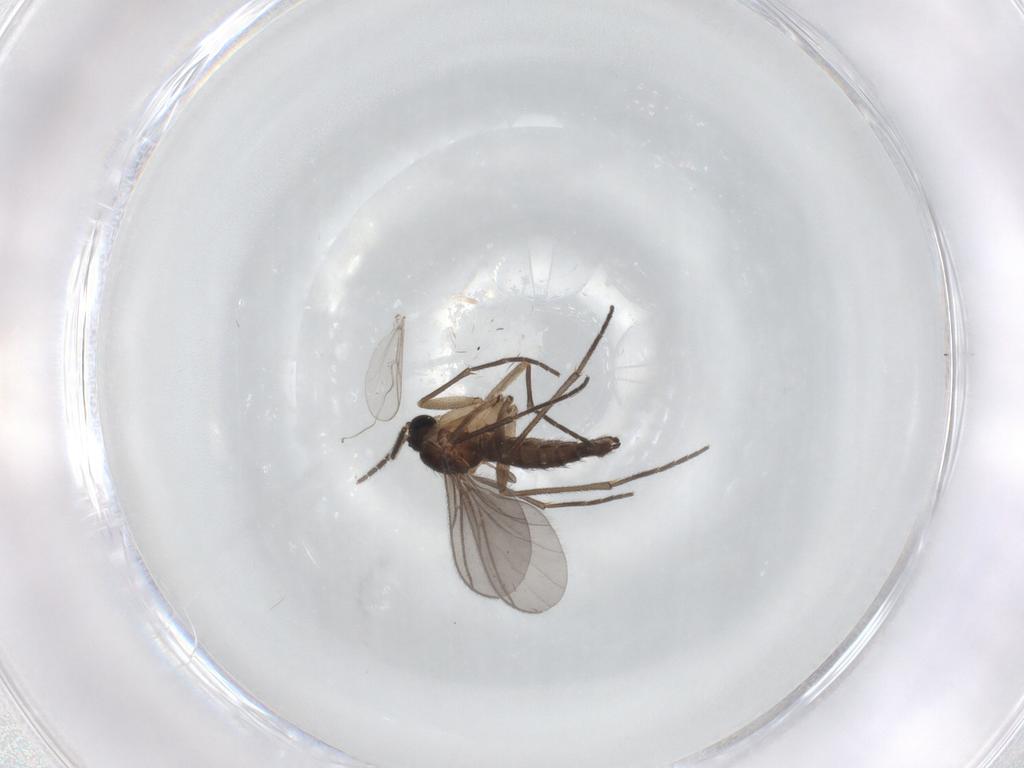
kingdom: Animalia
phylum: Arthropoda
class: Insecta
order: Diptera
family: Sciaridae
